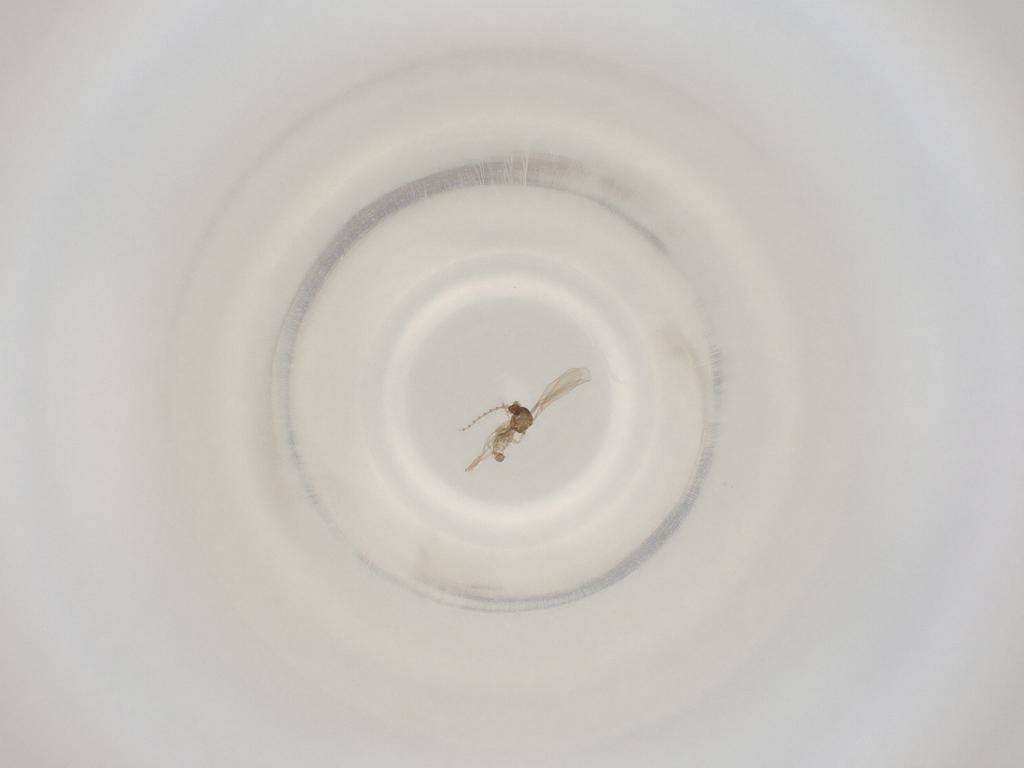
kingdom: Animalia
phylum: Arthropoda
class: Insecta
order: Diptera
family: Cecidomyiidae
